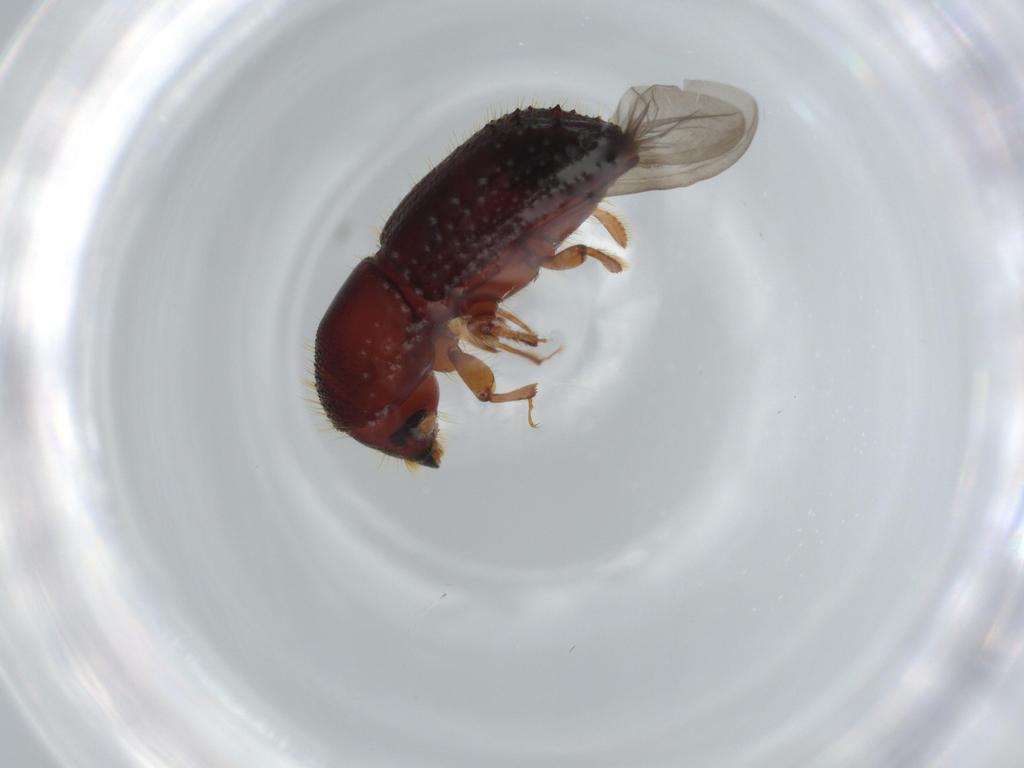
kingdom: Animalia
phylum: Arthropoda
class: Insecta
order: Coleoptera
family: Curculionidae
